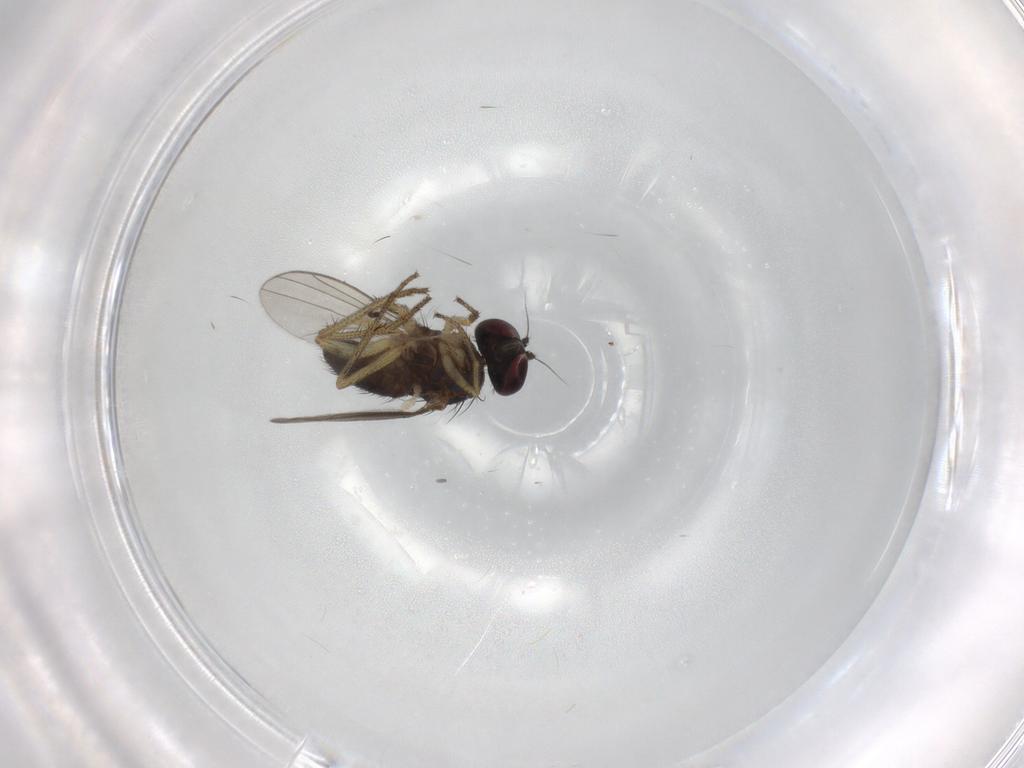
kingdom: Animalia
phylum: Arthropoda
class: Insecta
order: Diptera
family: Chironomidae
